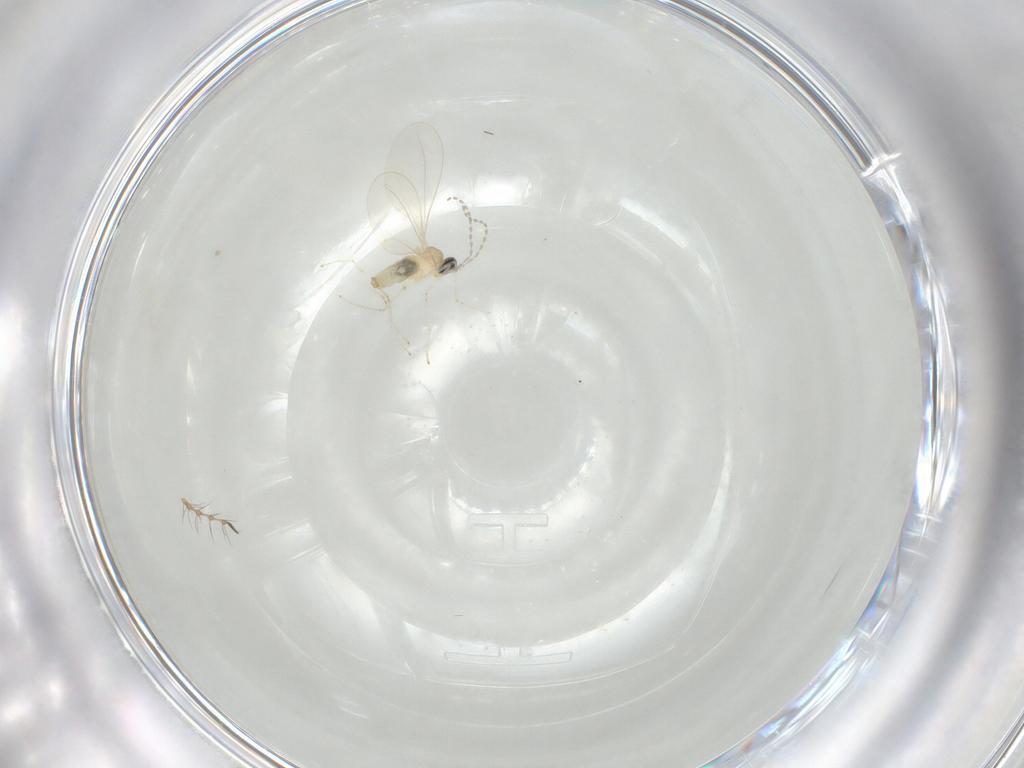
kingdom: Animalia
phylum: Arthropoda
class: Insecta
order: Diptera
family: Cecidomyiidae
